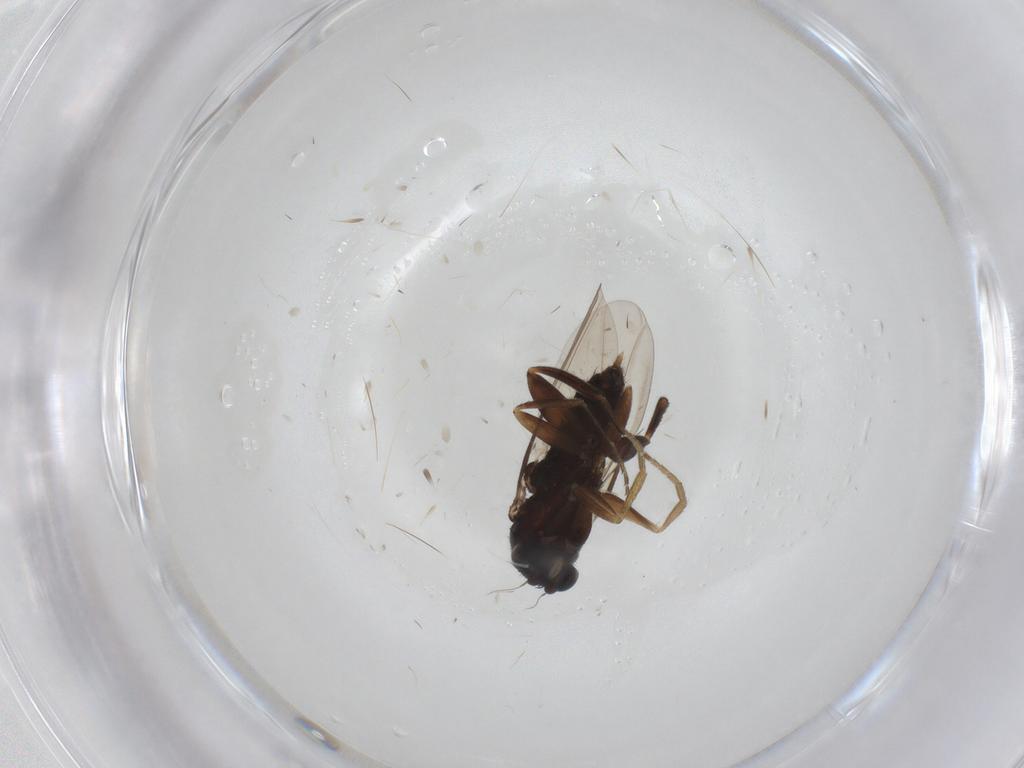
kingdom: Animalia
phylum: Arthropoda
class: Insecta
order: Diptera
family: Phoridae
